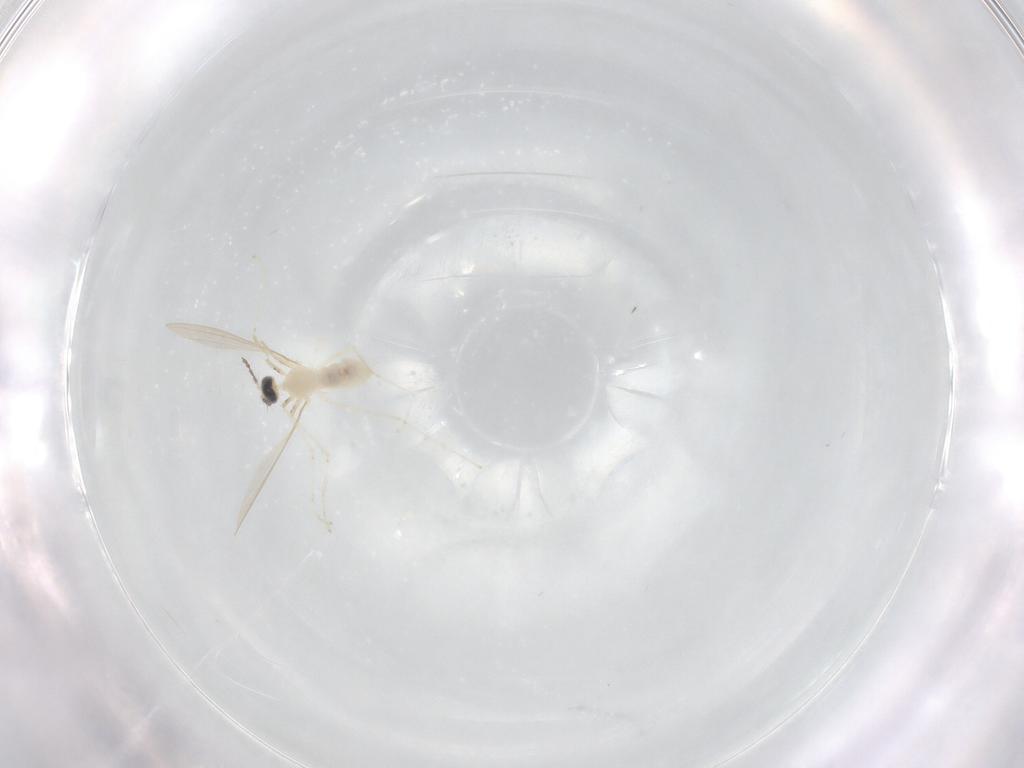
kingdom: Animalia
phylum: Arthropoda
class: Insecta
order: Diptera
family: Cecidomyiidae
